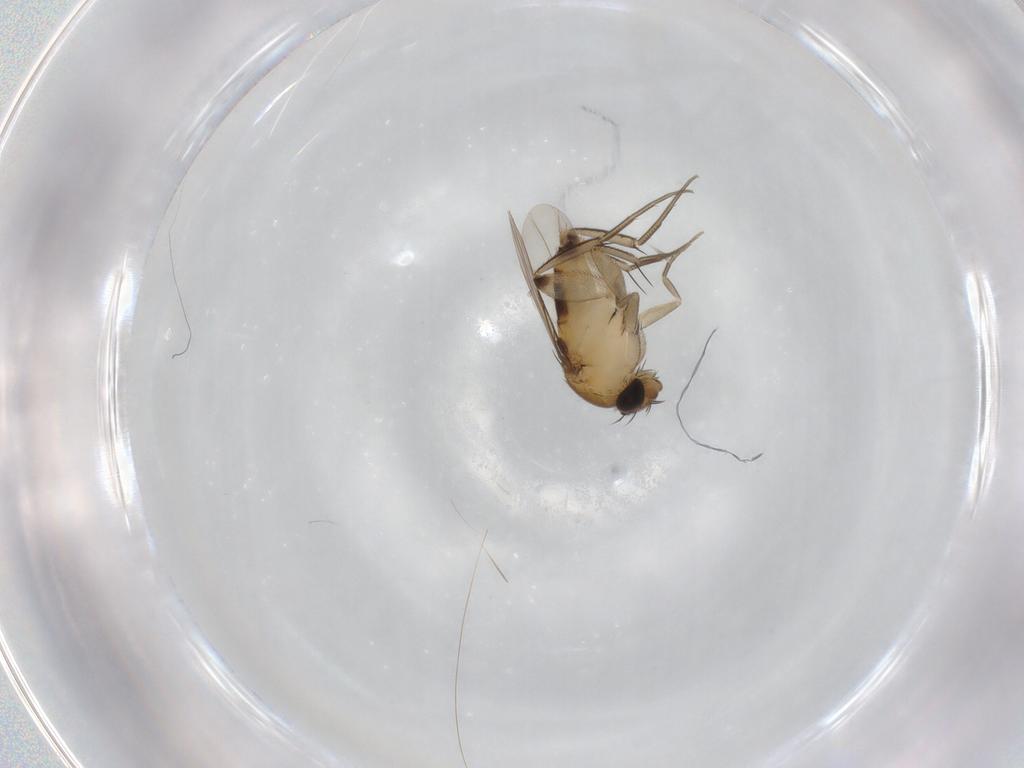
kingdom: Animalia
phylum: Arthropoda
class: Insecta
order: Diptera
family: Phoridae
